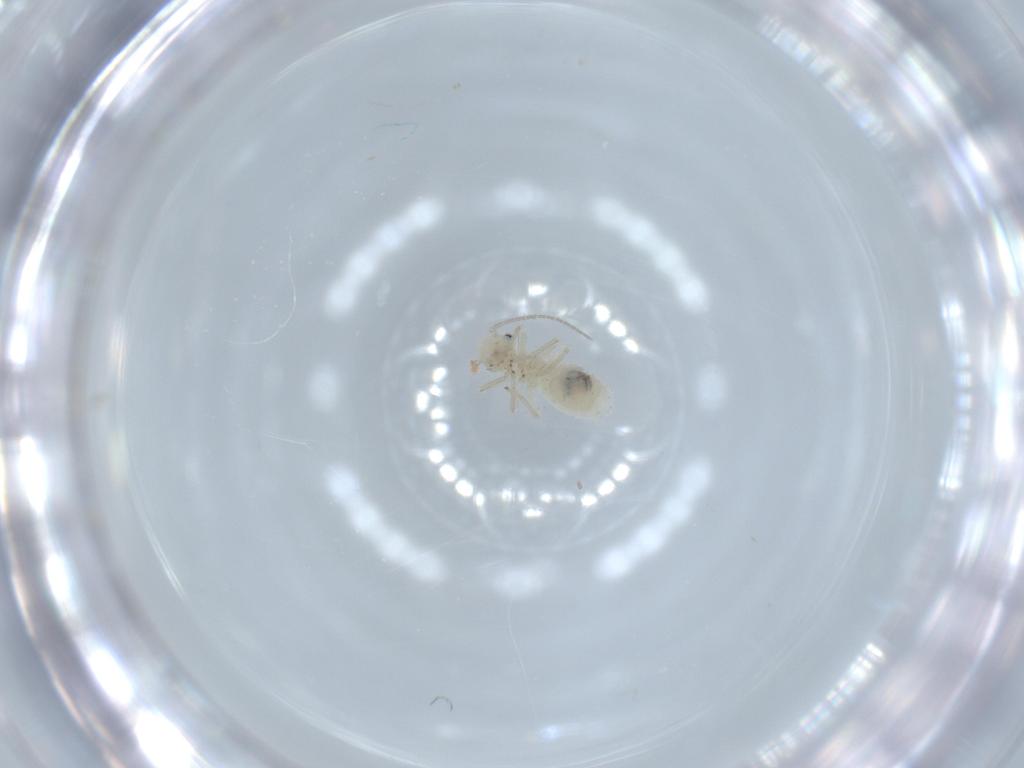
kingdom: Animalia
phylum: Arthropoda
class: Insecta
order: Psocodea
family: Caeciliusidae
